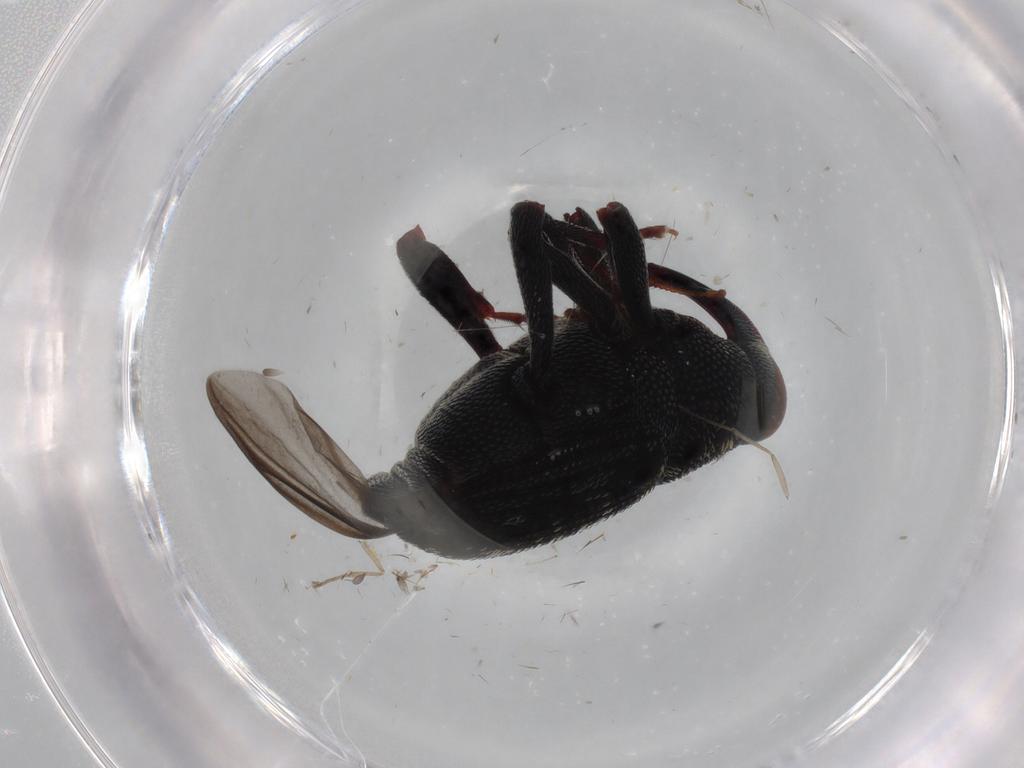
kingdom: Animalia
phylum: Arthropoda
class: Insecta
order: Coleoptera
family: Curculionidae
